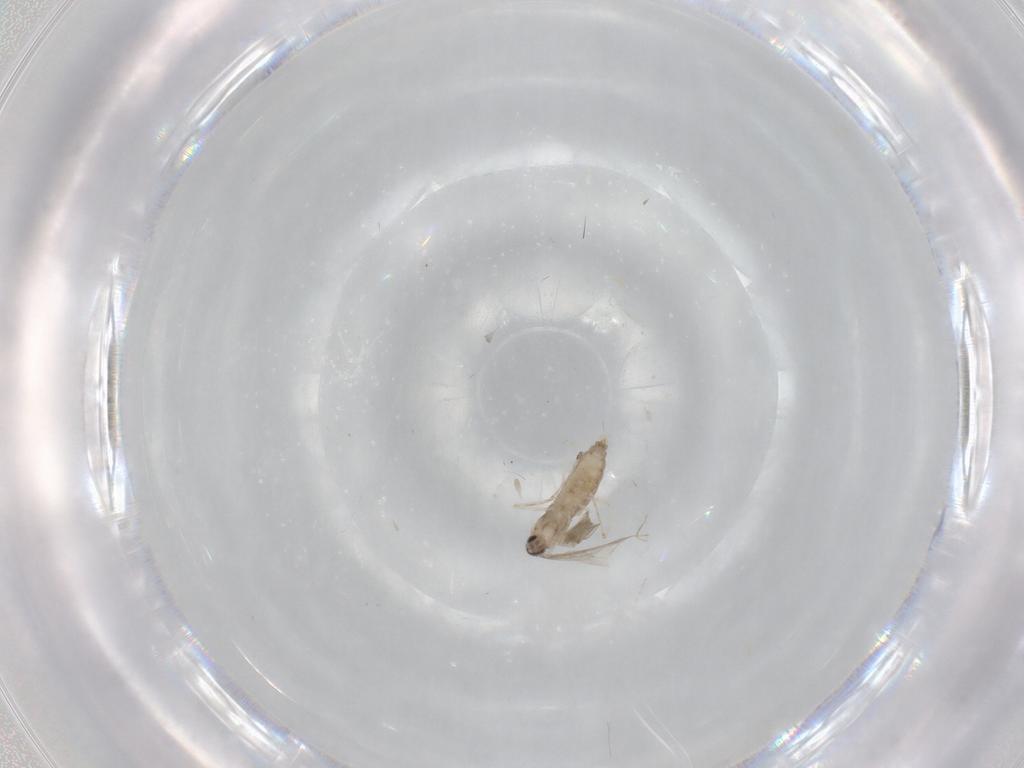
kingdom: Animalia
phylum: Arthropoda
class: Insecta
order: Diptera
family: Cecidomyiidae
